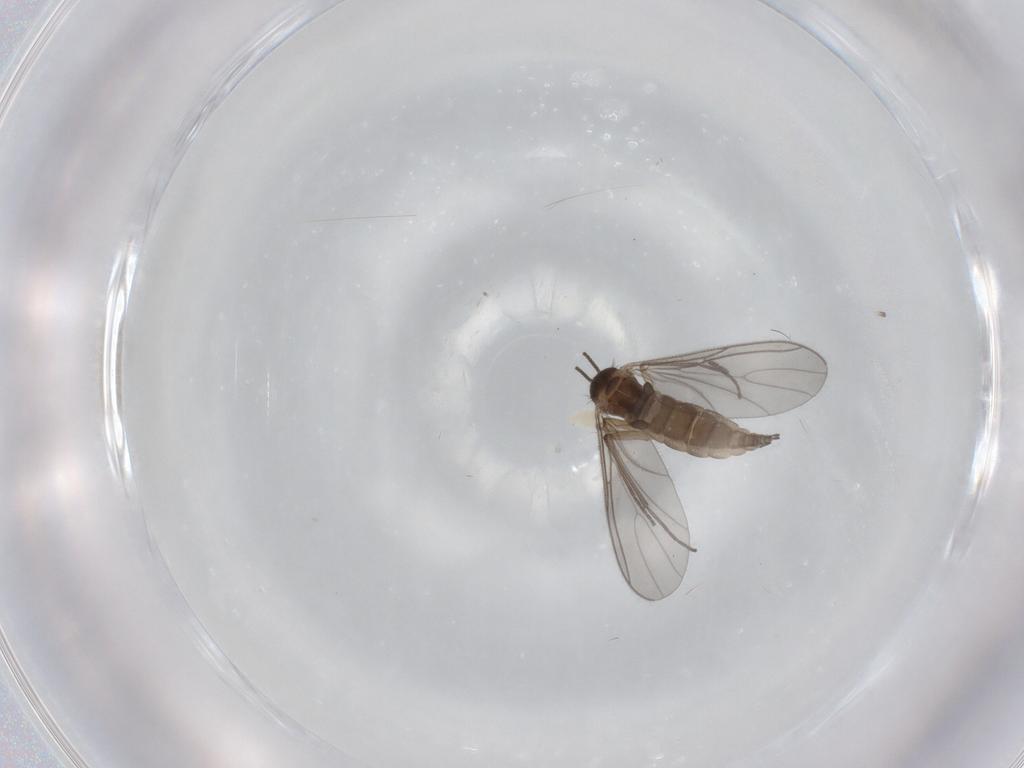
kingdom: Animalia
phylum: Arthropoda
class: Insecta
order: Diptera
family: Sciaridae
